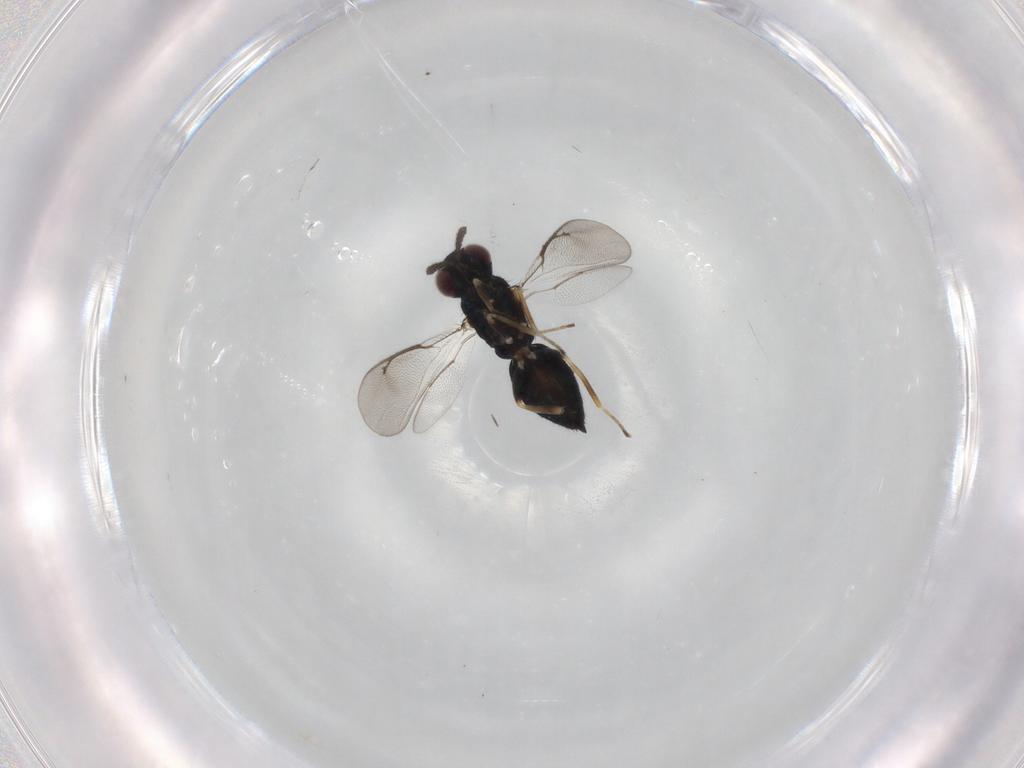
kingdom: Animalia
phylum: Arthropoda
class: Insecta
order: Hymenoptera
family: Eulophidae
